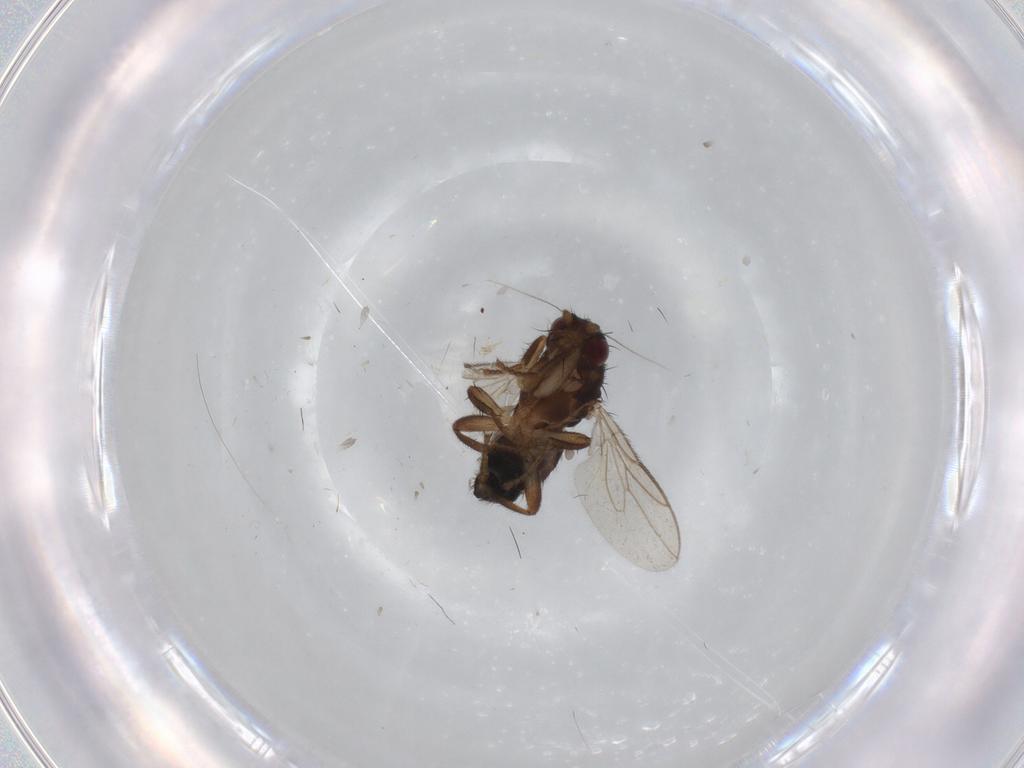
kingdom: Animalia
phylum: Arthropoda
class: Insecta
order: Diptera
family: Sphaeroceridae
